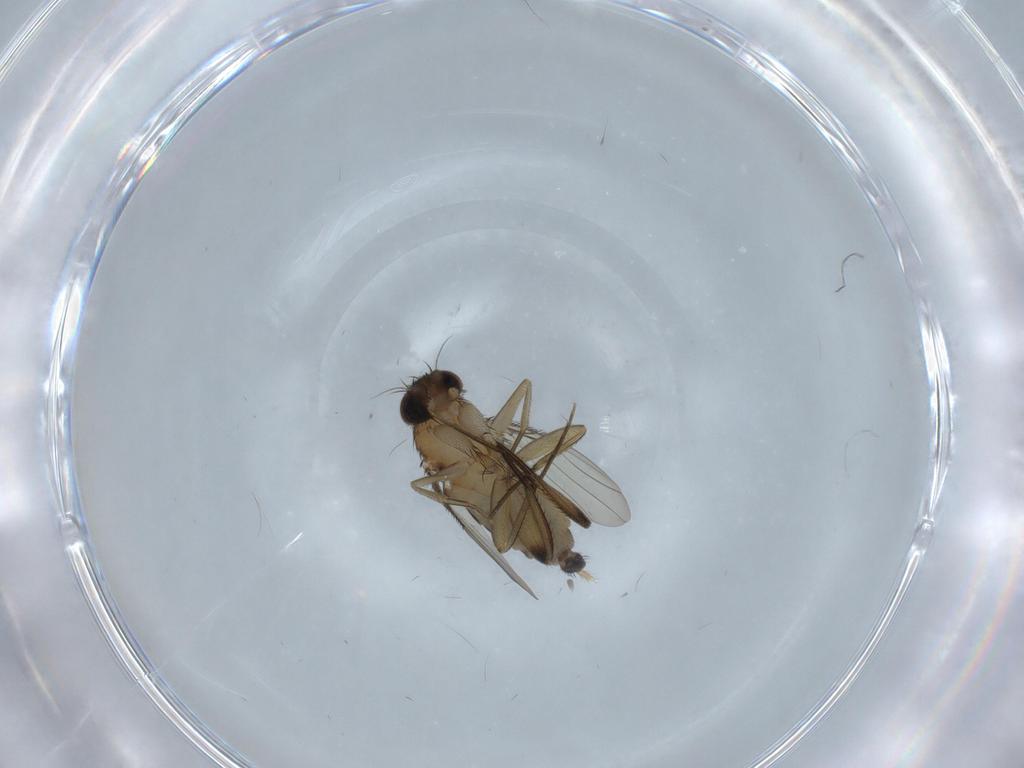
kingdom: Animalia
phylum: Arthropoda
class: Insecta
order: Diptera
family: Phoridae
